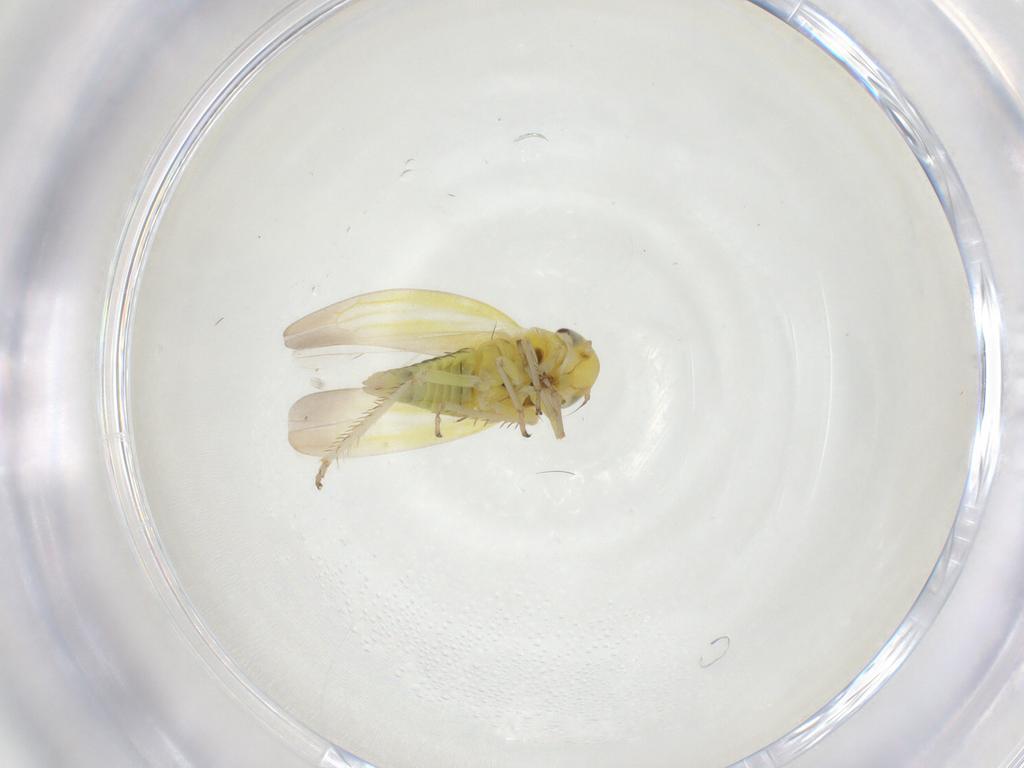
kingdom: Animalia
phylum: Arthropoda
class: Insecta
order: Hemiptera
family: Cicadellidae
